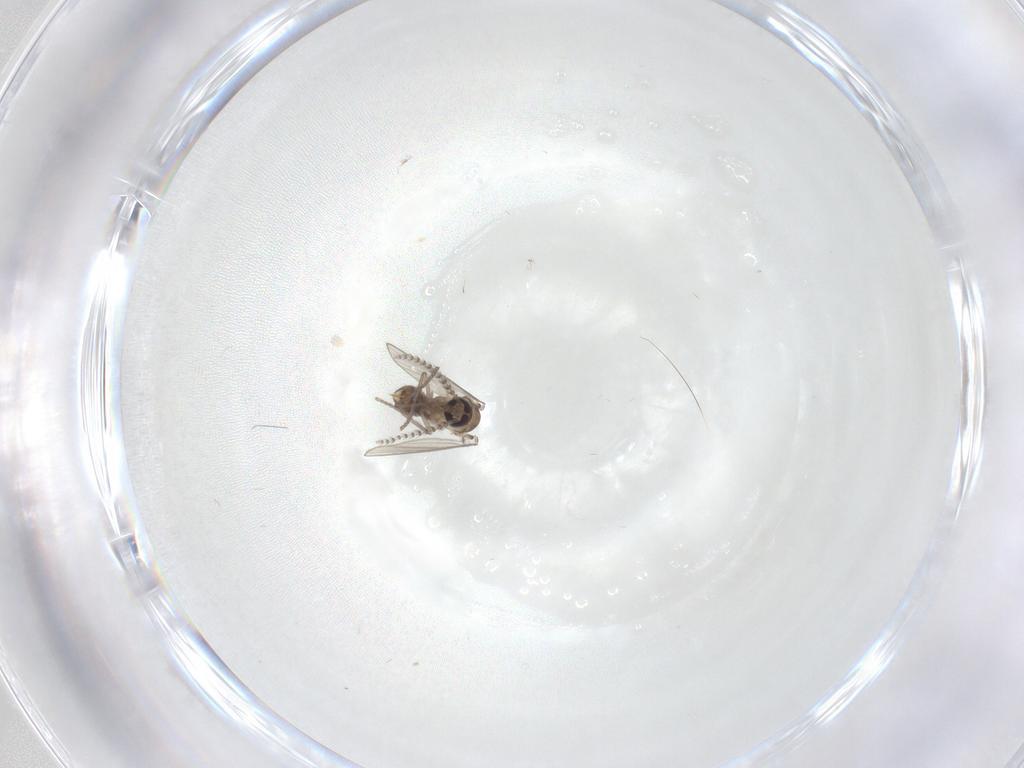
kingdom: Animalia
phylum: Arthropoda
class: Insecta
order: Diptera
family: Psychodidae
